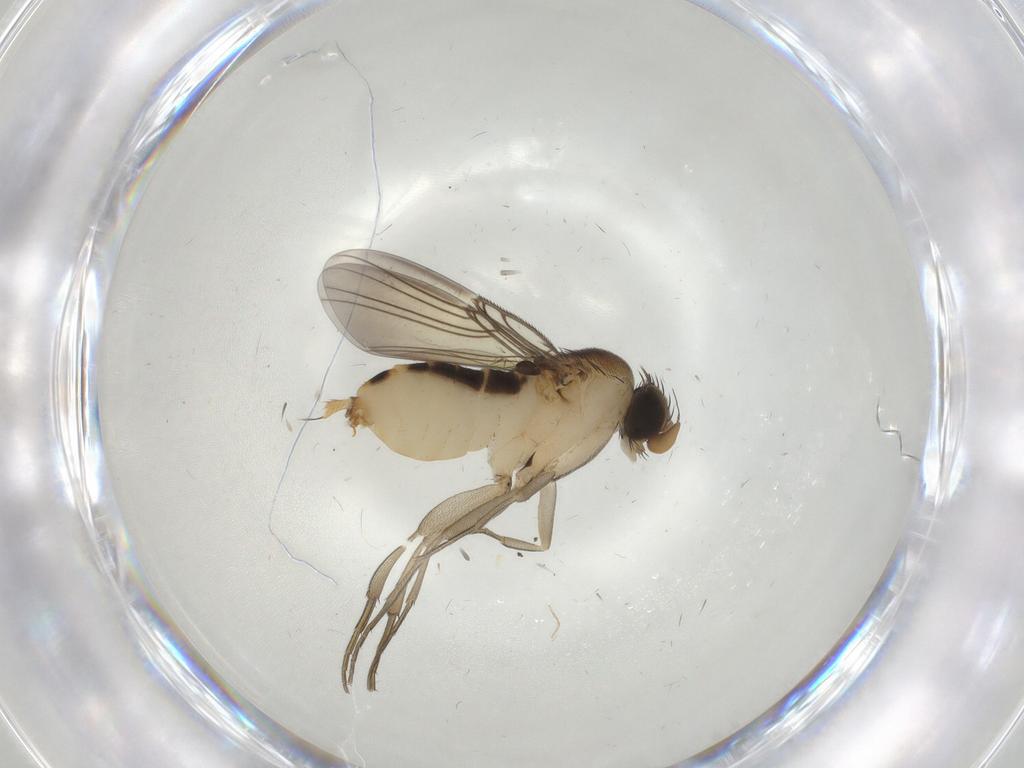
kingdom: Animalia
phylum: Arthropoda
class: Insecta
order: Diptera
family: Phoridae
